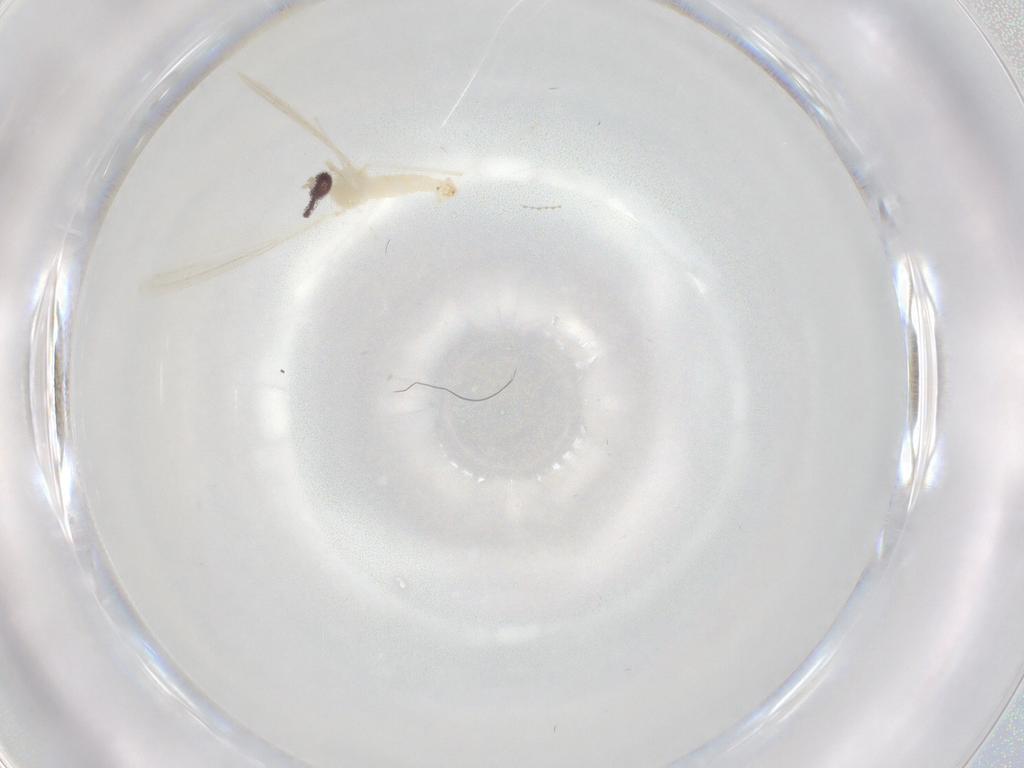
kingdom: Animalia
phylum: Arthropoda
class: Insecta
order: Diptera
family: Cecidomyiidae
